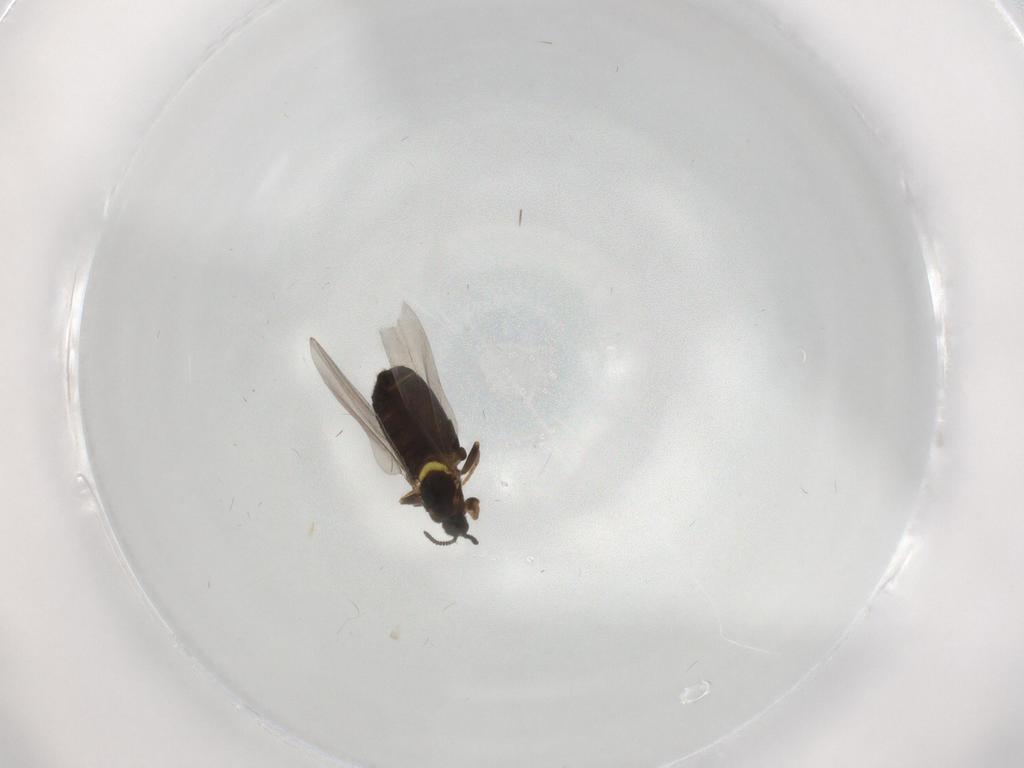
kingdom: Animalia
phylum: Arthropoda
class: Insecta
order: Diptera
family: Scatopsidae
